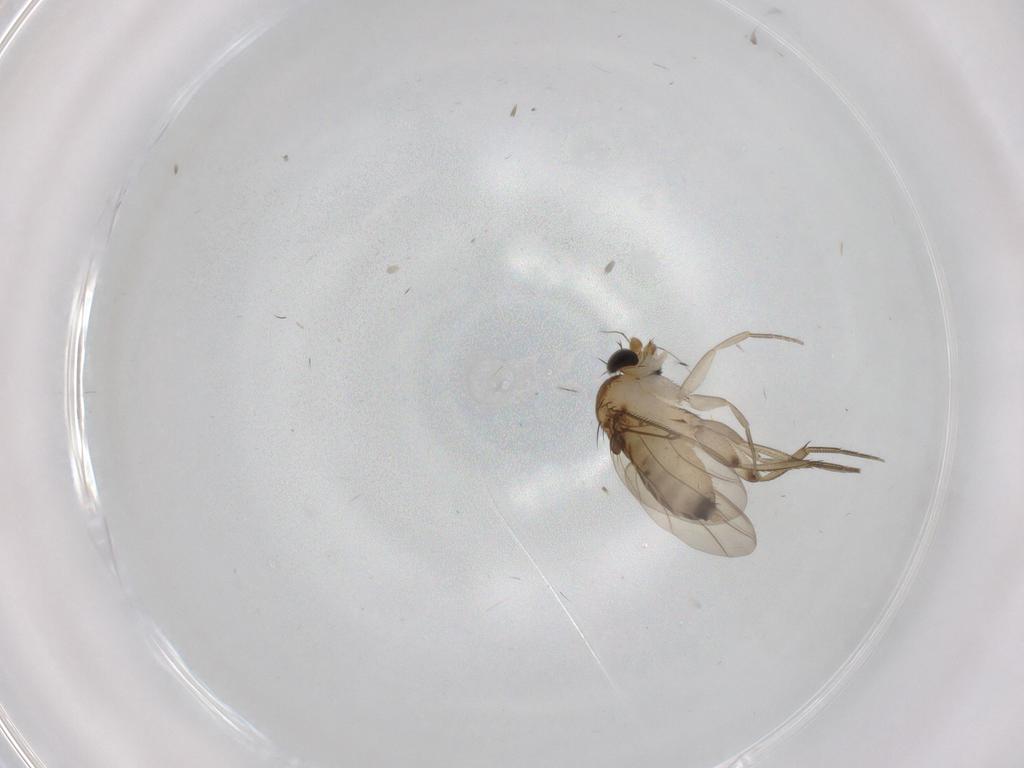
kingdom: Animalia
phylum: Arthropoda
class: Insecta
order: Diptera
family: Phoridae
